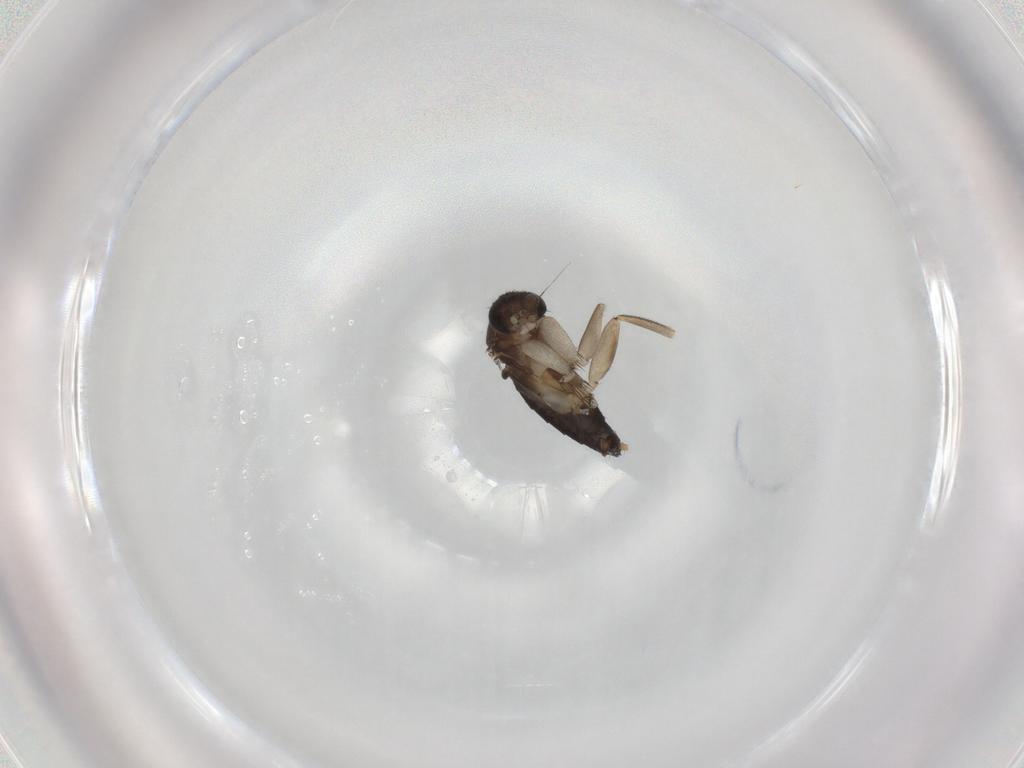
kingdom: Animalia
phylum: Arthropoda
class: Insecta
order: Diptera
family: Phoridae
